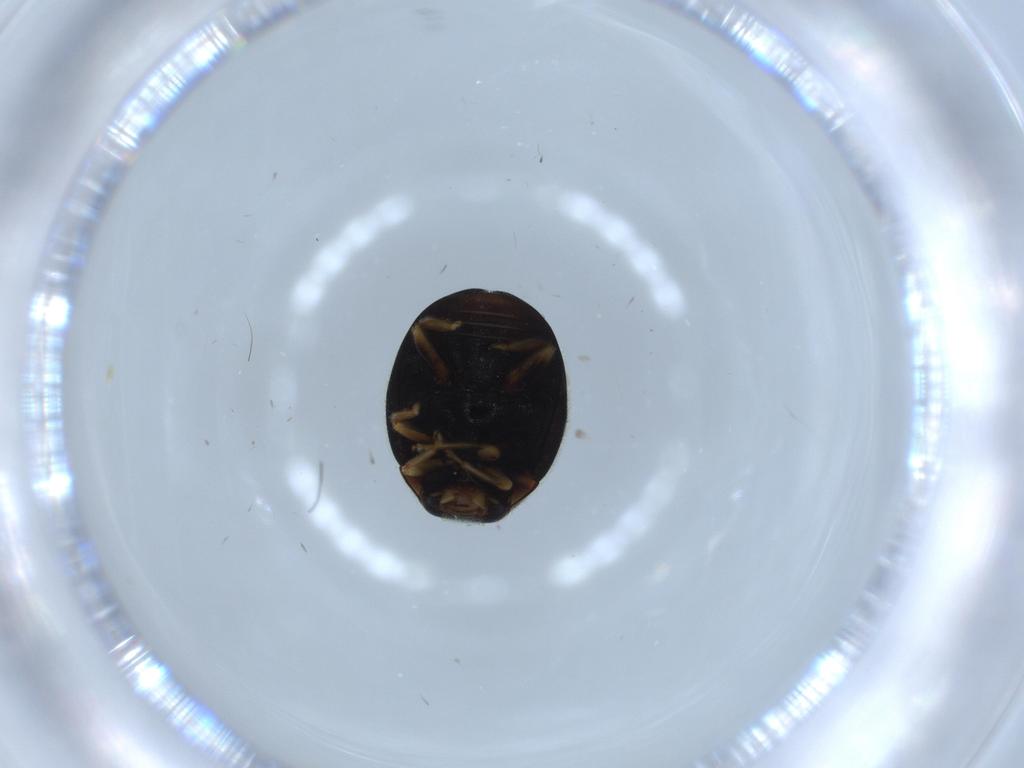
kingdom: Animalia
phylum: Arthropoda
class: Insecta
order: Coleoptera
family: Coccinellidae
